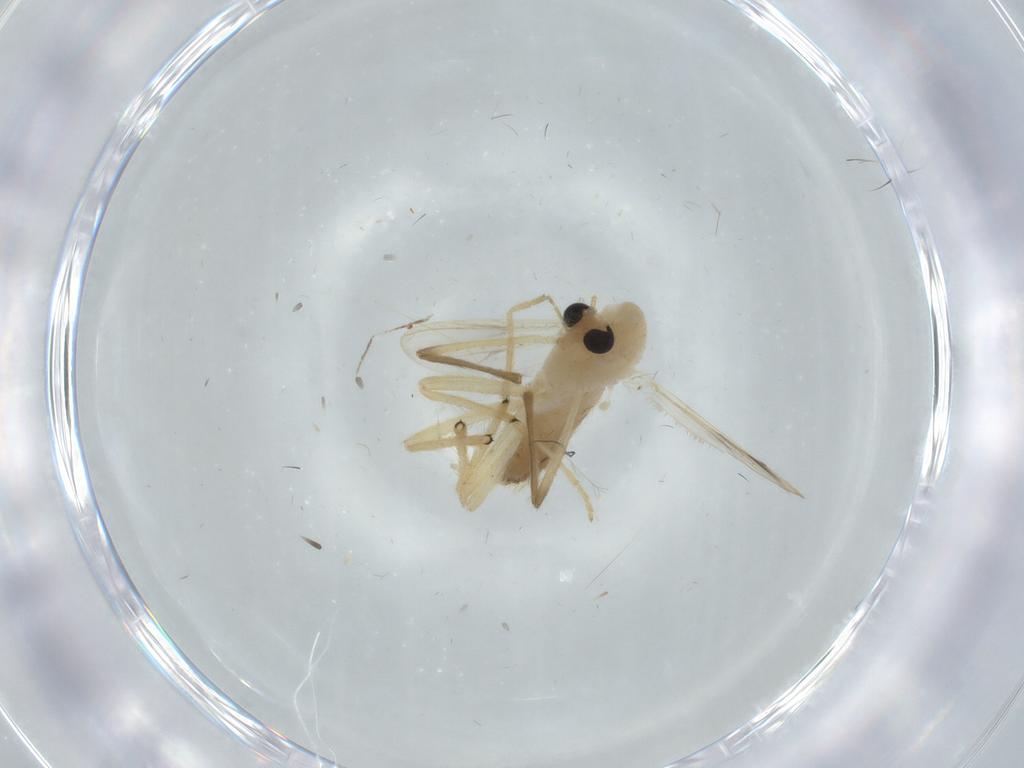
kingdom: Animalia
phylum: Arthropoda
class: Insecta
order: Diptera
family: Chironomidae
